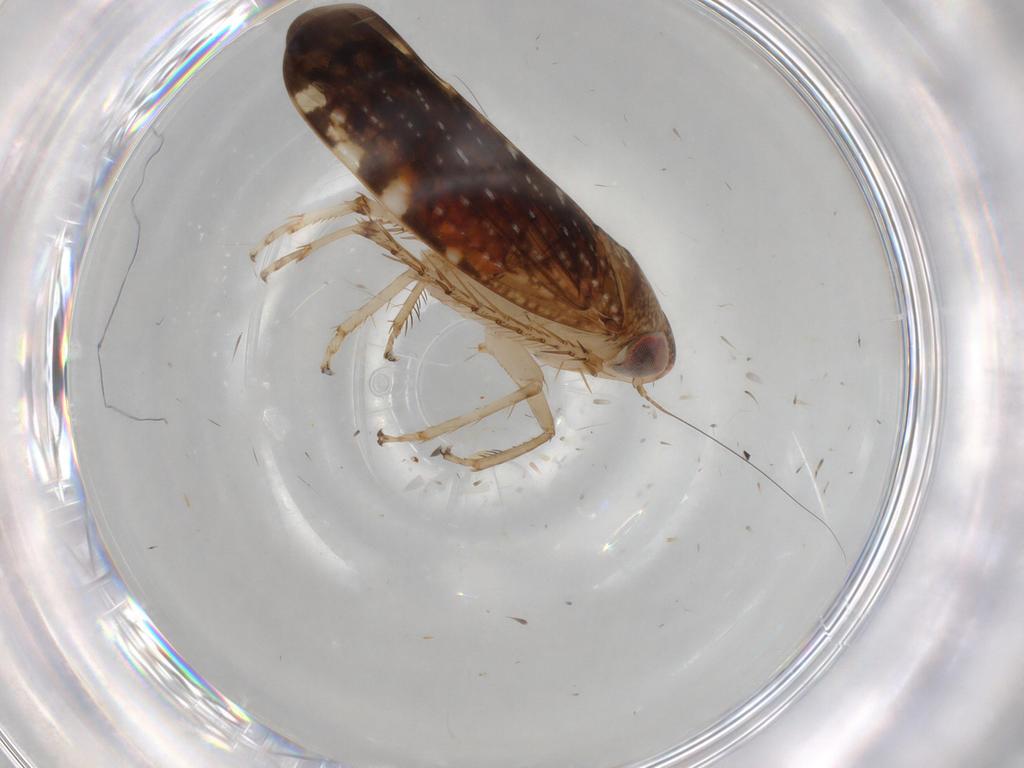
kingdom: Animalia
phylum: Arthropoda
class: Insecta
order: Hemiptera
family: Cicadellidae
